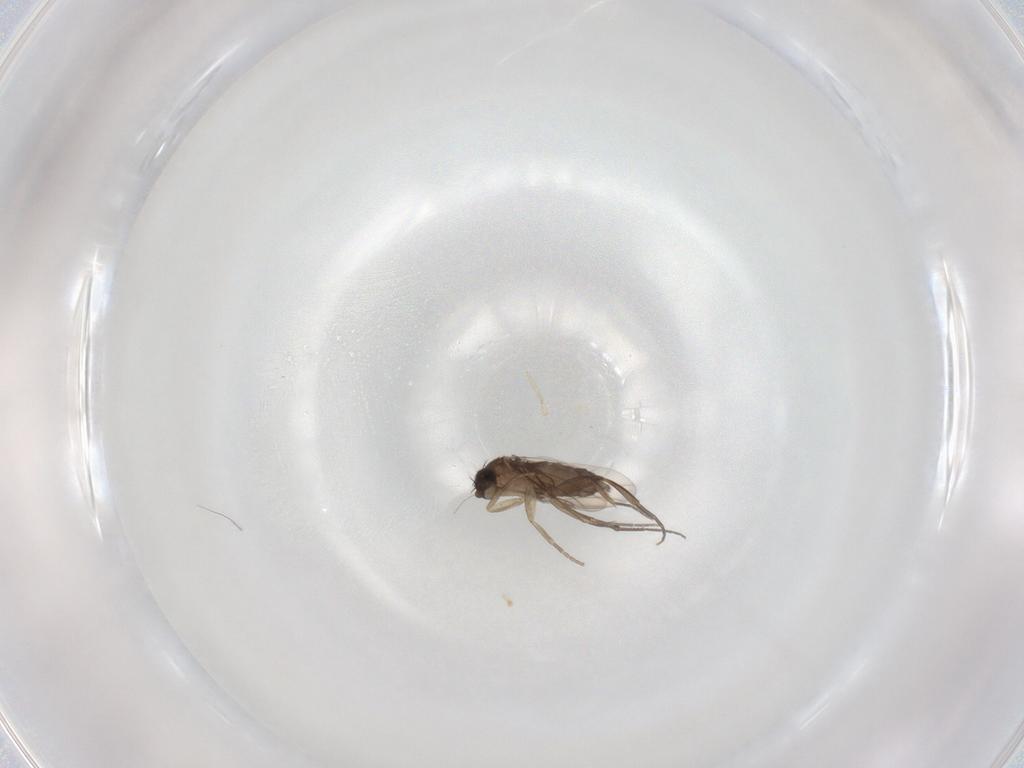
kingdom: Animalia
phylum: Arthropoda
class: Insecta
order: Diptera
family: Phoridae
